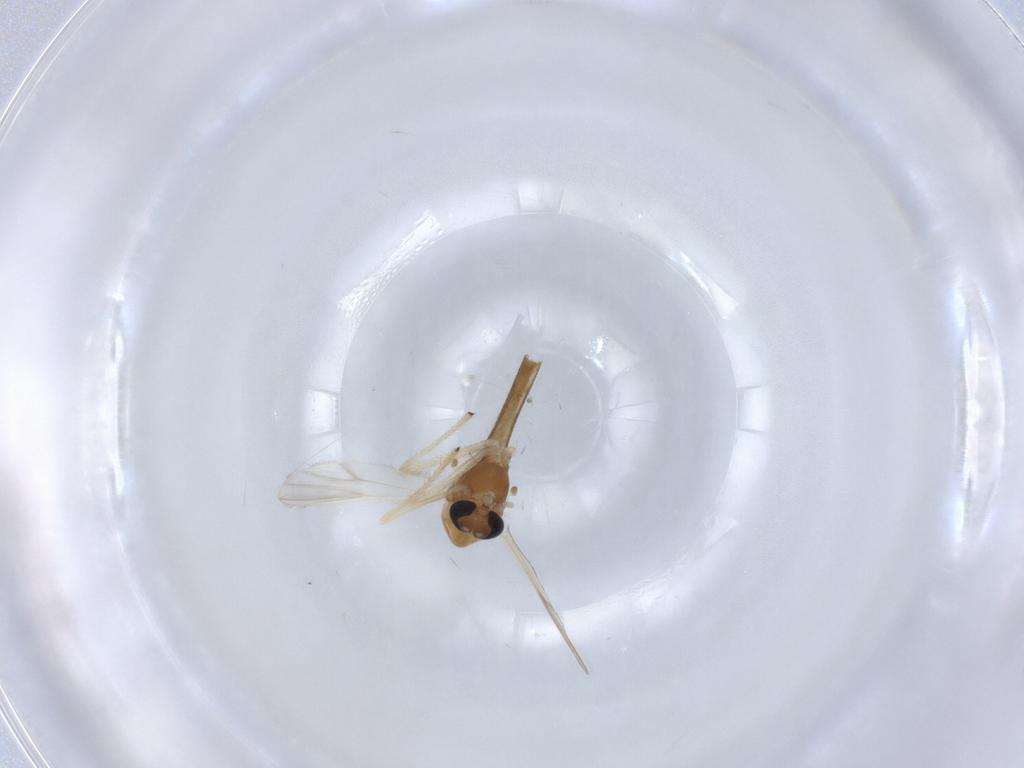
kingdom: Animalia
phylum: Arthropoda
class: Insecta
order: Diptera
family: Chironomidae
